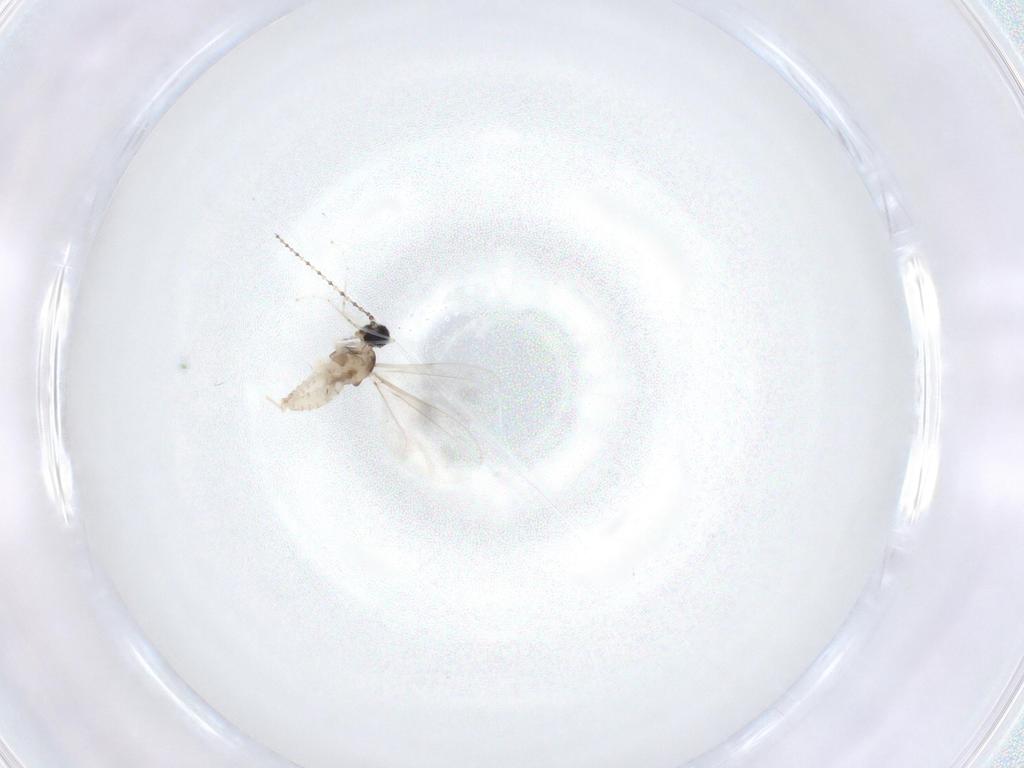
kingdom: Animalia
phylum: Arthropoda
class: Insecta
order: Diptera
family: Cecidomyiidae
